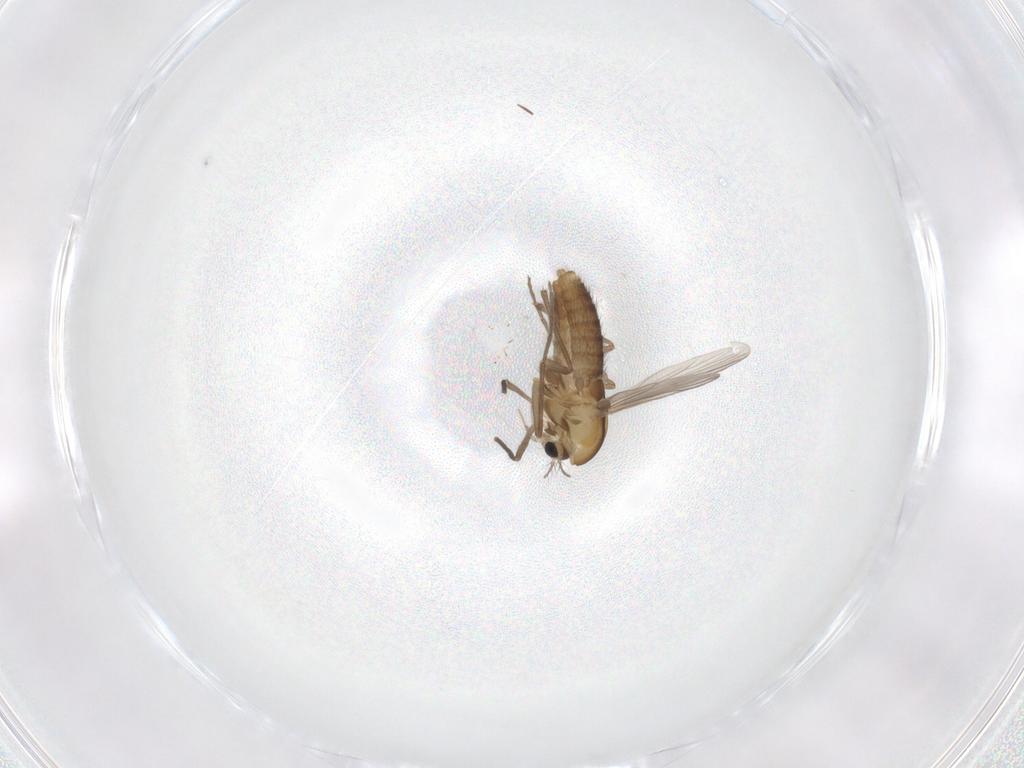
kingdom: Animalia
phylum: Arthropoda
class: Insecta
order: Diptera
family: Chironomidae
